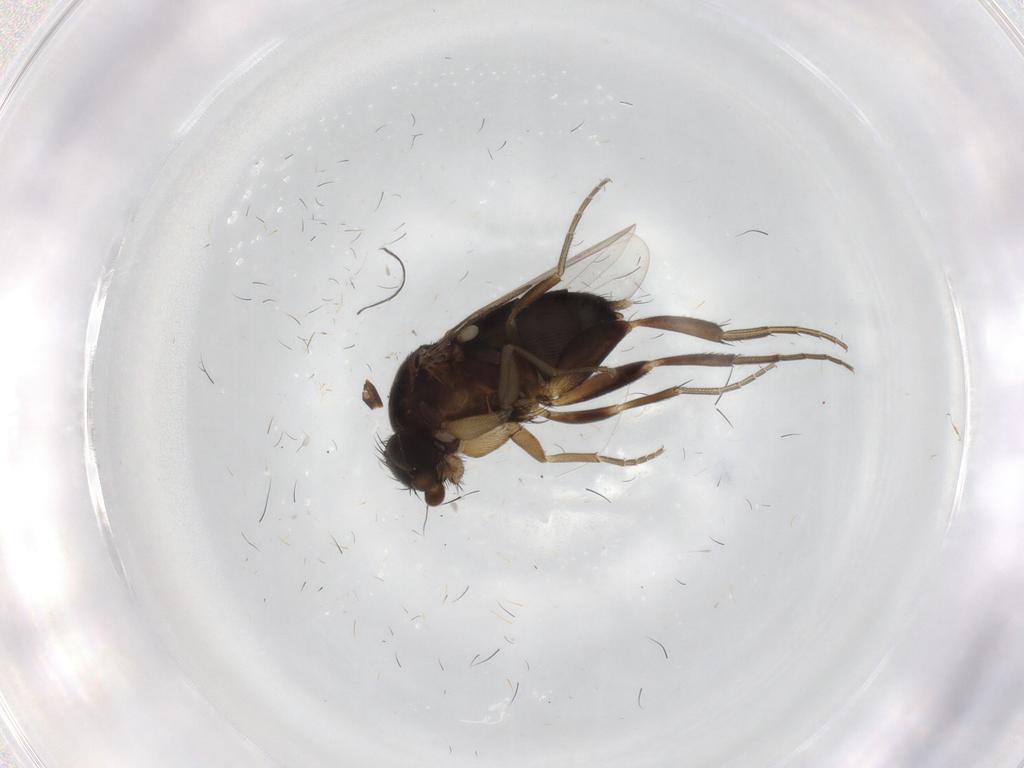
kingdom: Animalia
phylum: Arthropoda
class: Insecta
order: Diptera
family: Phoridae
